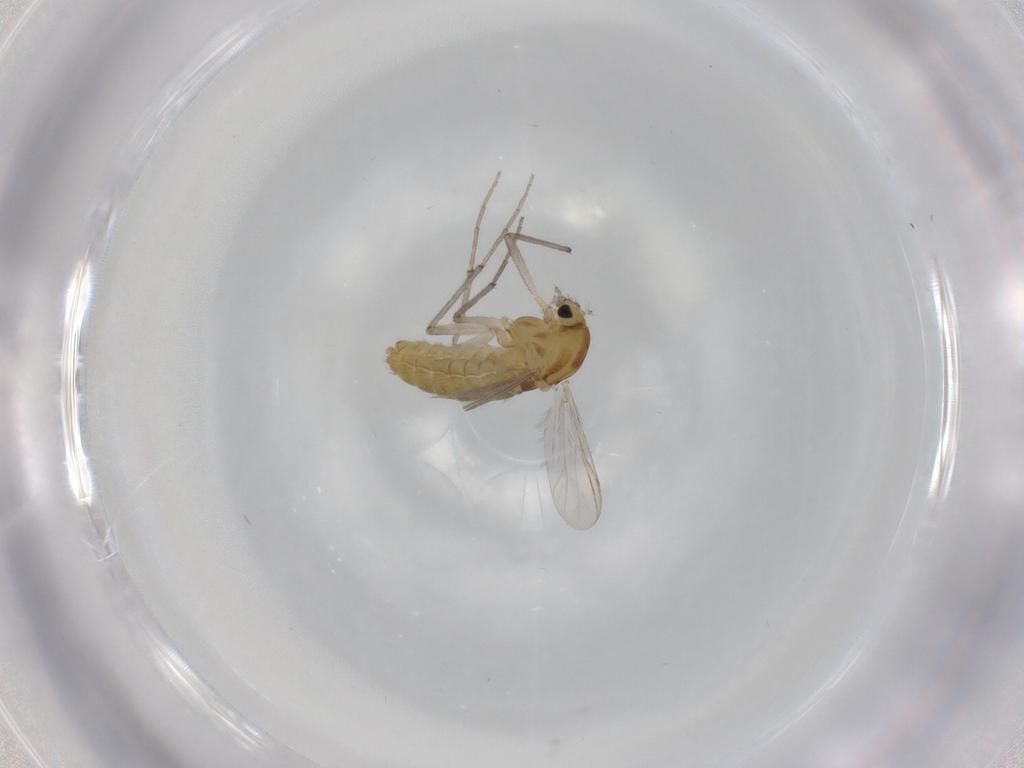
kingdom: Animalia
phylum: Arthropoda
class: Insecta
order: Diptera
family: Chironomidae
